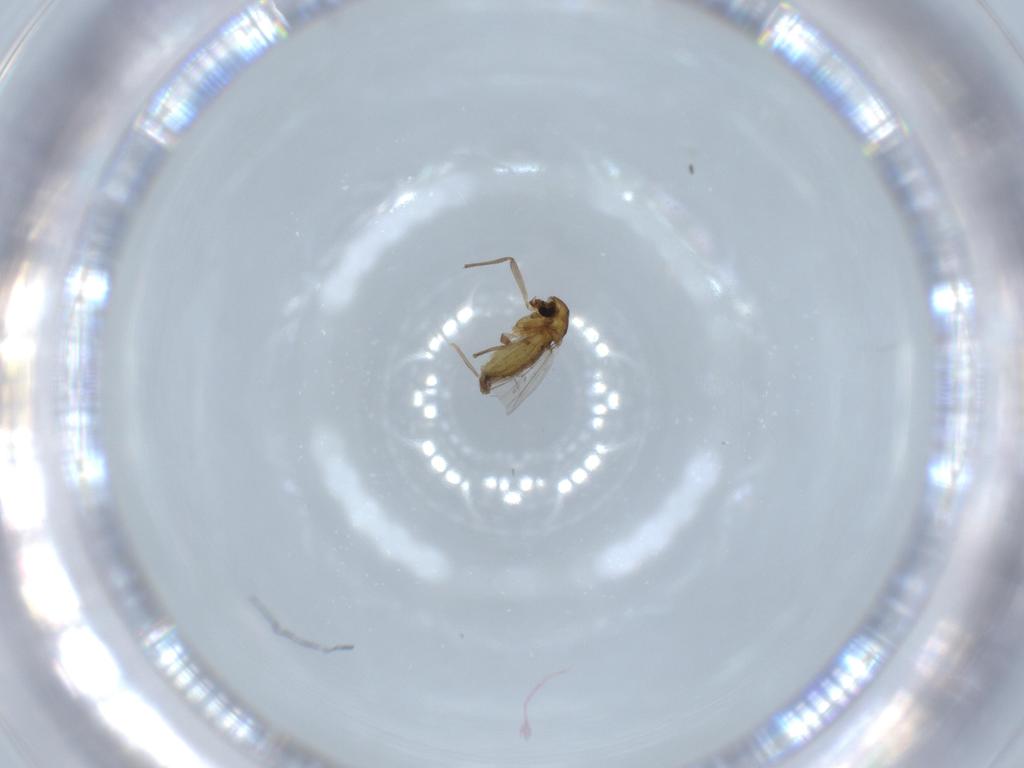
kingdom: Animalia
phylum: Arthropoda
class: Insecta
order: Diptera
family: Chironomidae
